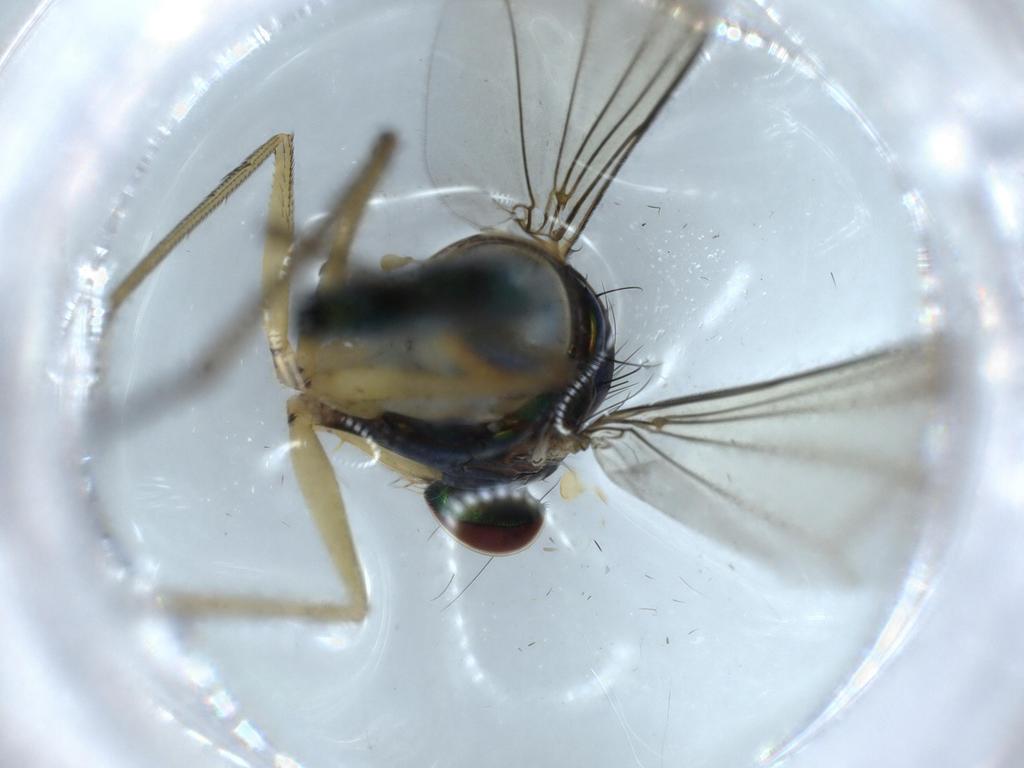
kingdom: Animalia
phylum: Arthropoda
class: Insecta
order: Diptera
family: Dolichopodidae
